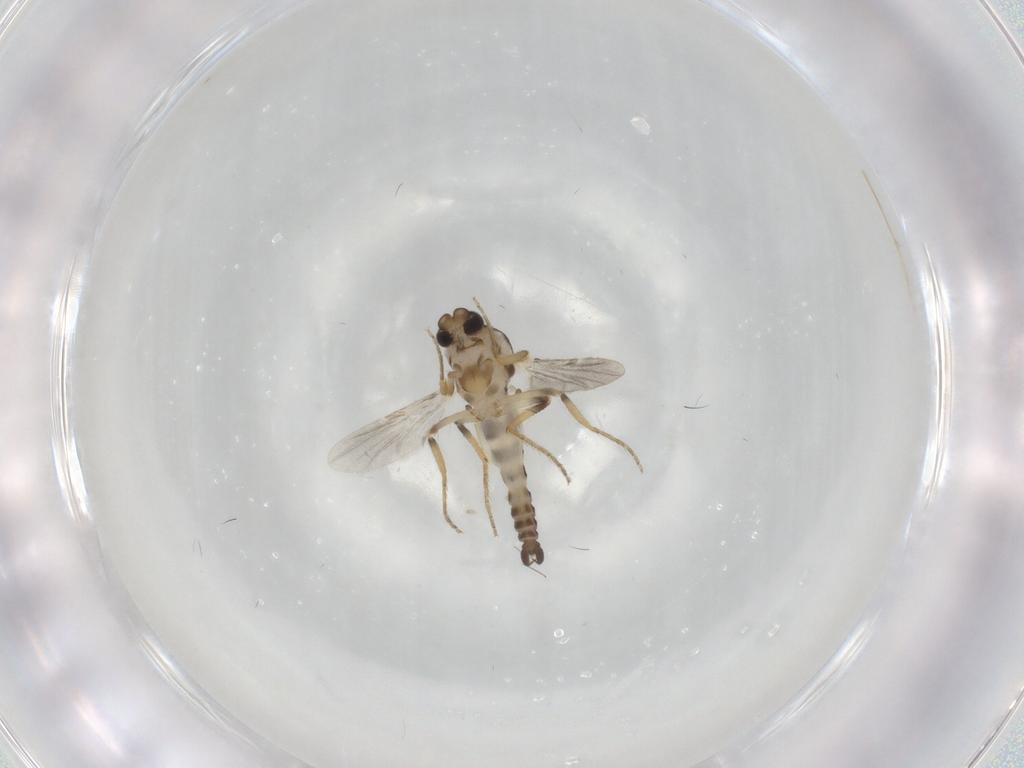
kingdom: Animalia
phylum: Arthropoda
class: Insecta
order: Diptera
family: Ceratopogonidae
